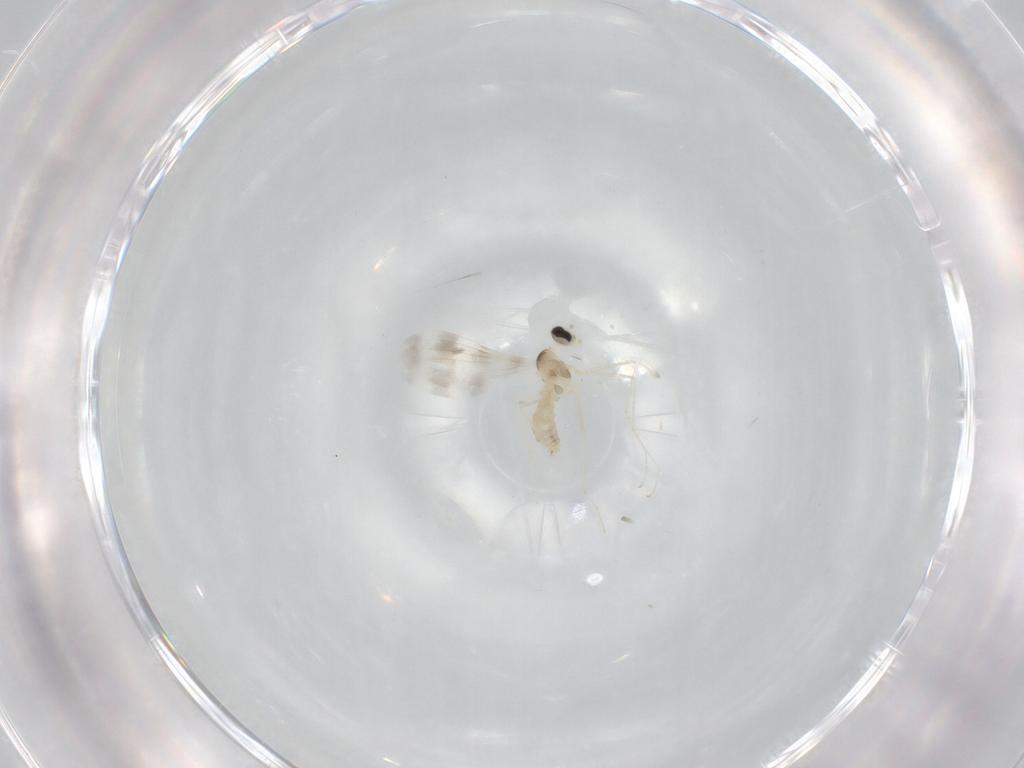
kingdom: Animalia
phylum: Arthropoda
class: Insecta
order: Diptera
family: Cecidomyiidae
